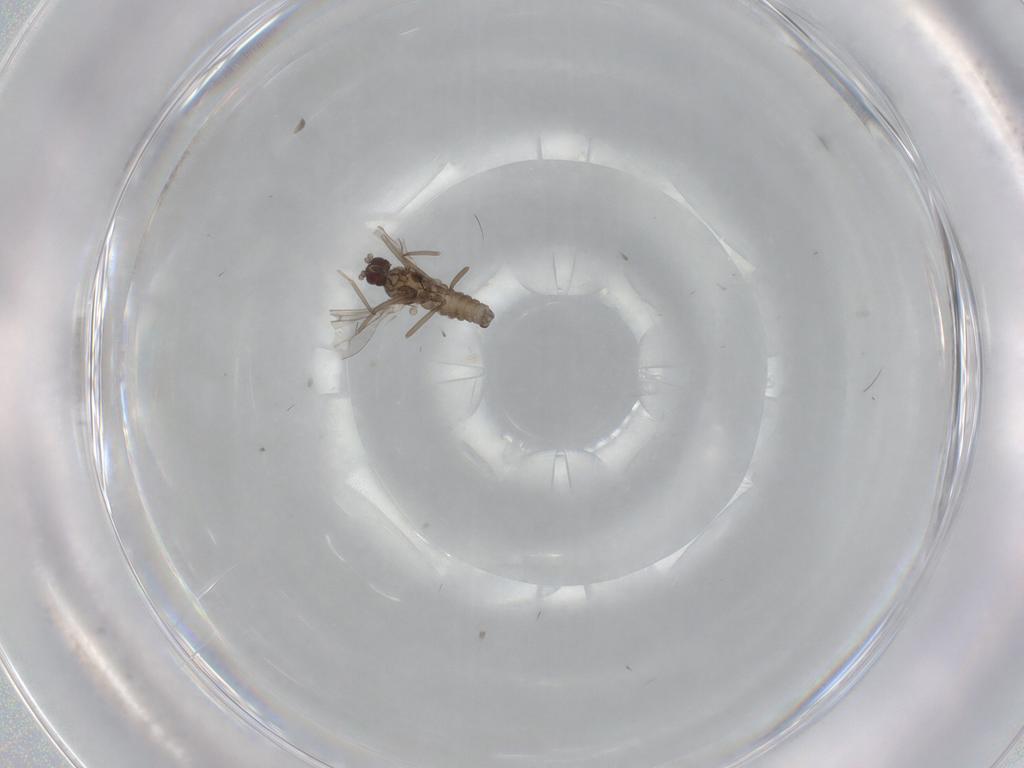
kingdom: Animalia
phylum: Arthropoda
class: Insecta
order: Diptera
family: Cecidomyiidae
